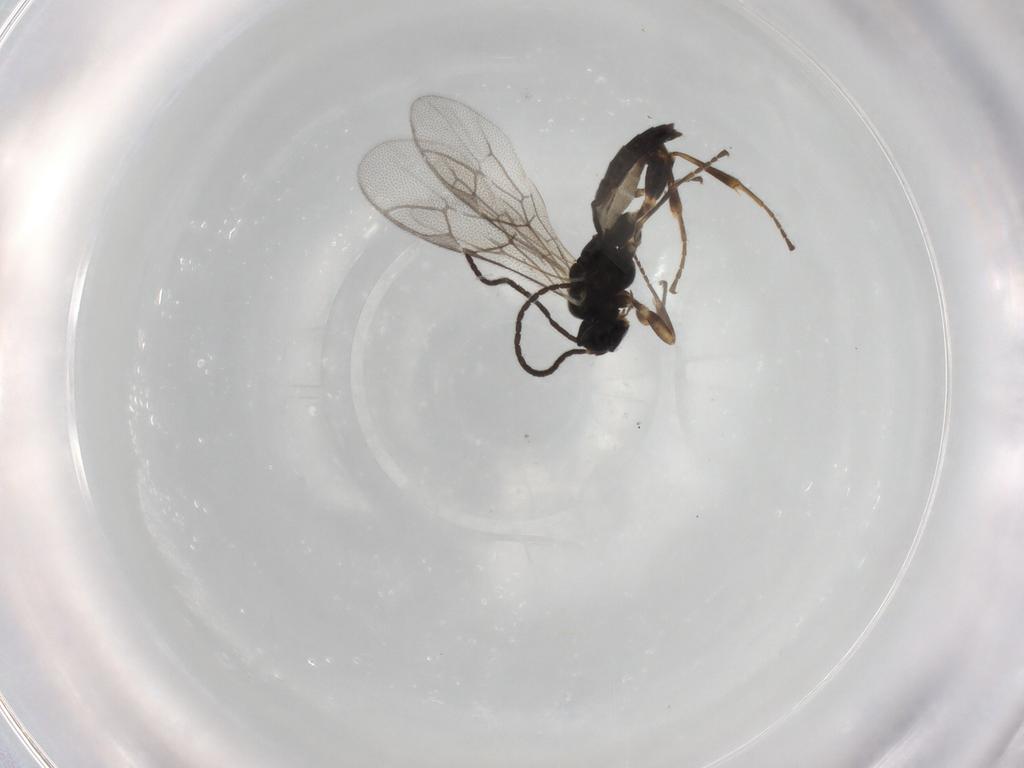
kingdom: Animalia
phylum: Arthropoda
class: Insecta
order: Hymenoptera
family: Ichneumonidae
